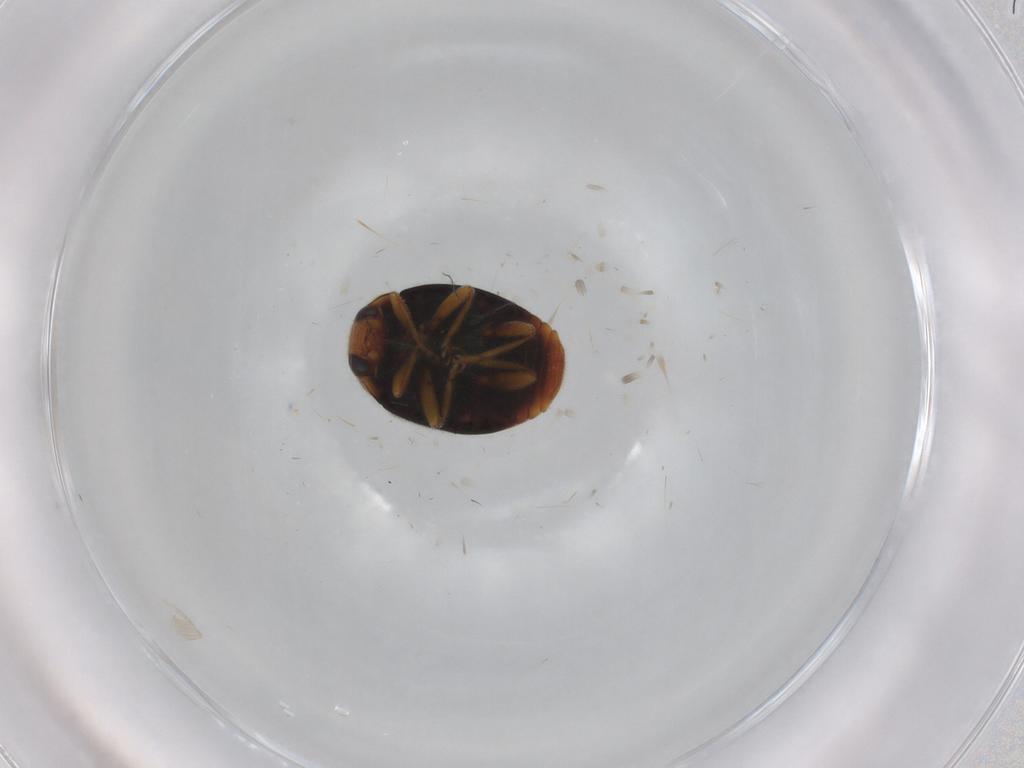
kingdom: Animalia
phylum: Arthropoda
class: Insecta
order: Coleoptera
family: Coccinellidae
